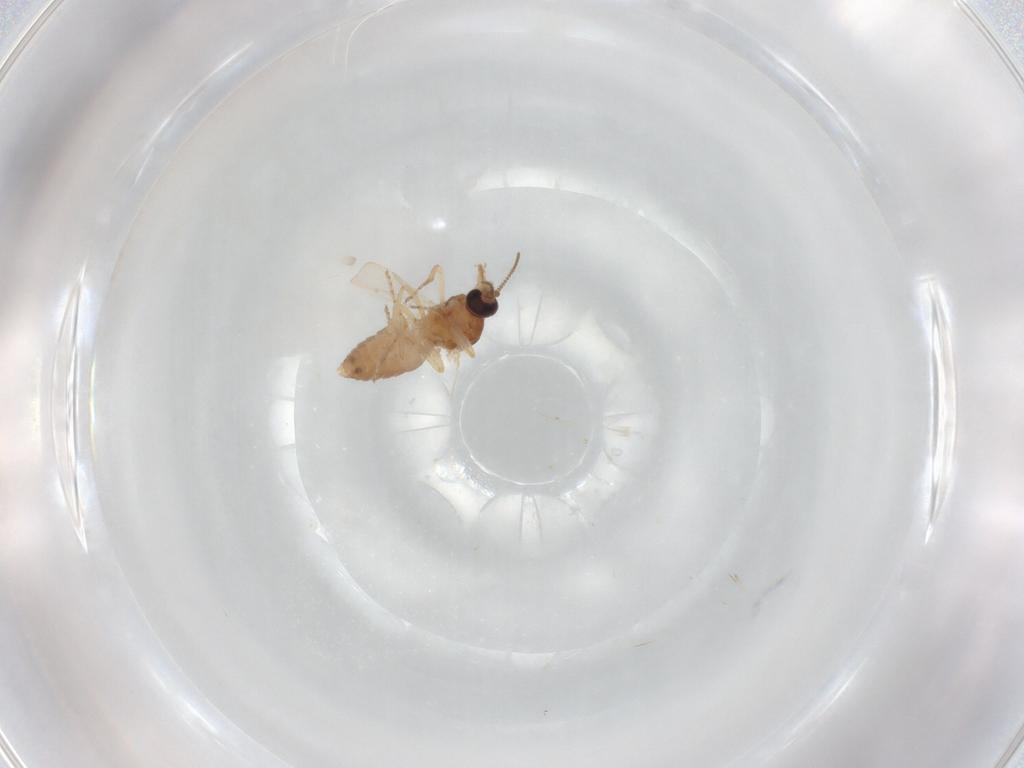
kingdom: Animalia
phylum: Arthropoda
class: Insecta
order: Diptera
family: Ceratopogonidae
